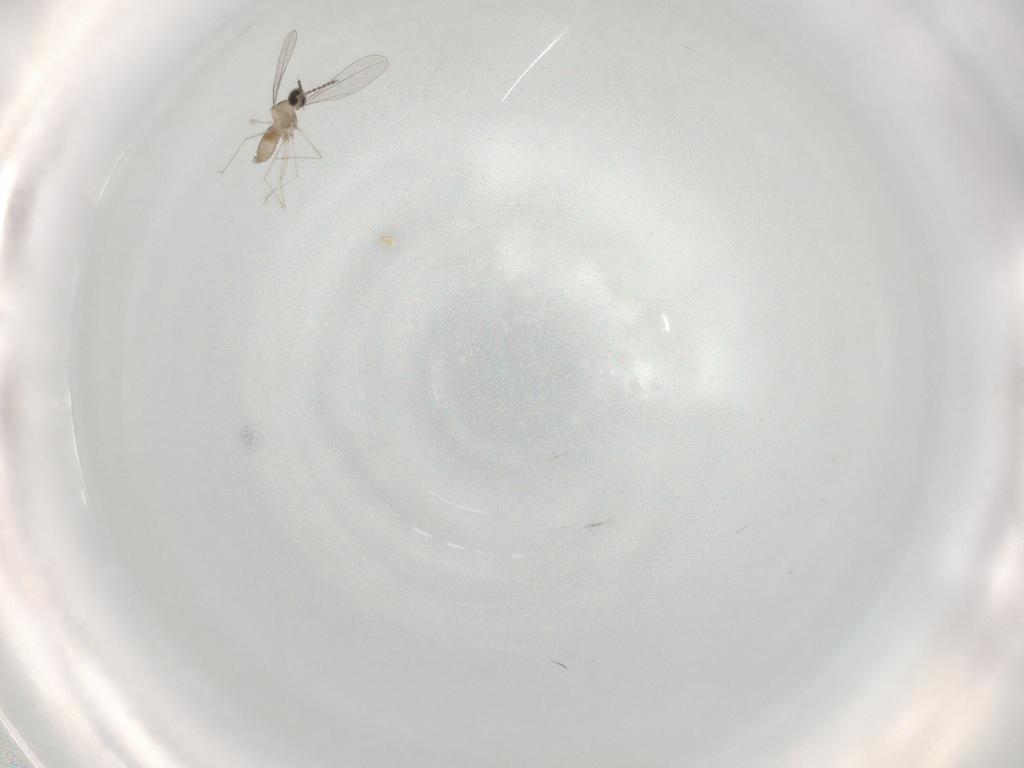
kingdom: Animalia
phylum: Arthropoda
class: Insecta
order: Diptera
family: Cecidomyiidae
